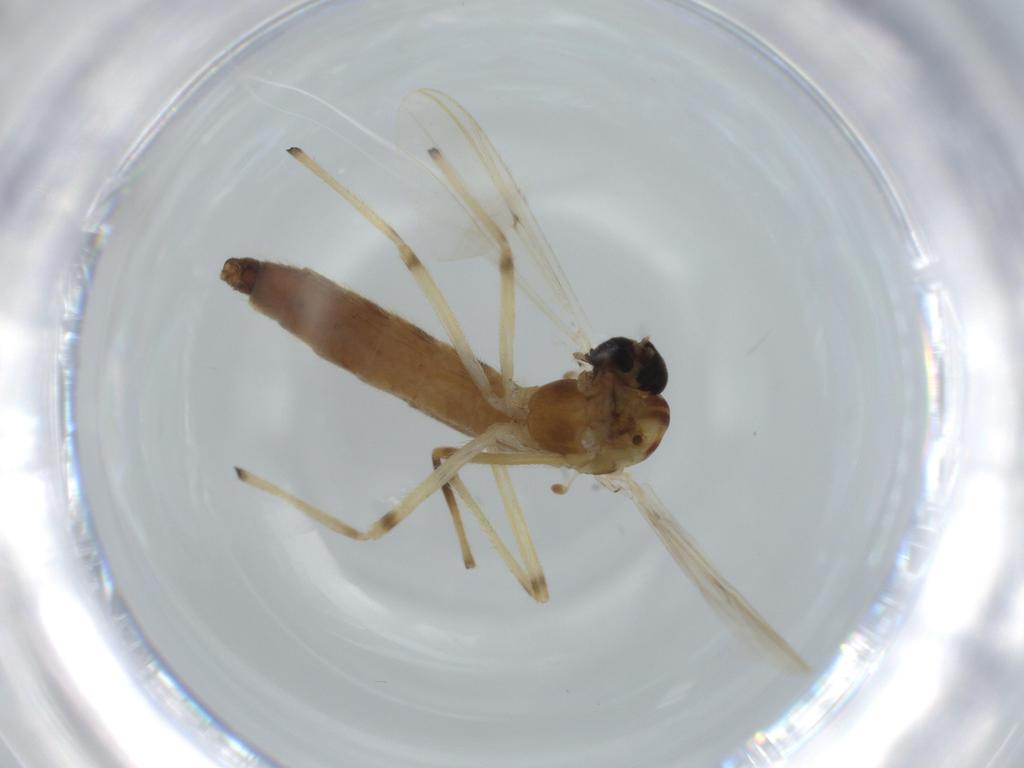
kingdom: Animalia
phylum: Arthropoda
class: Insecta
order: Diptera
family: Chironomidae
